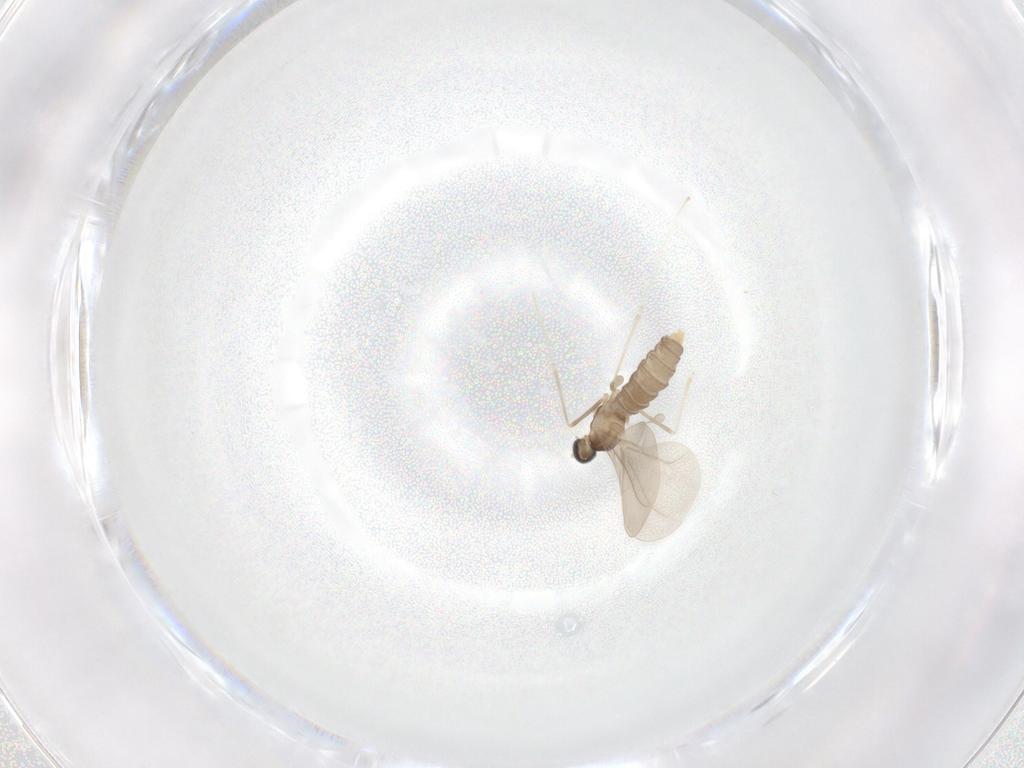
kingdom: Animalia
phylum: Arthropoda
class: Insecta
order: Diptera
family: Cecidomyiidae
